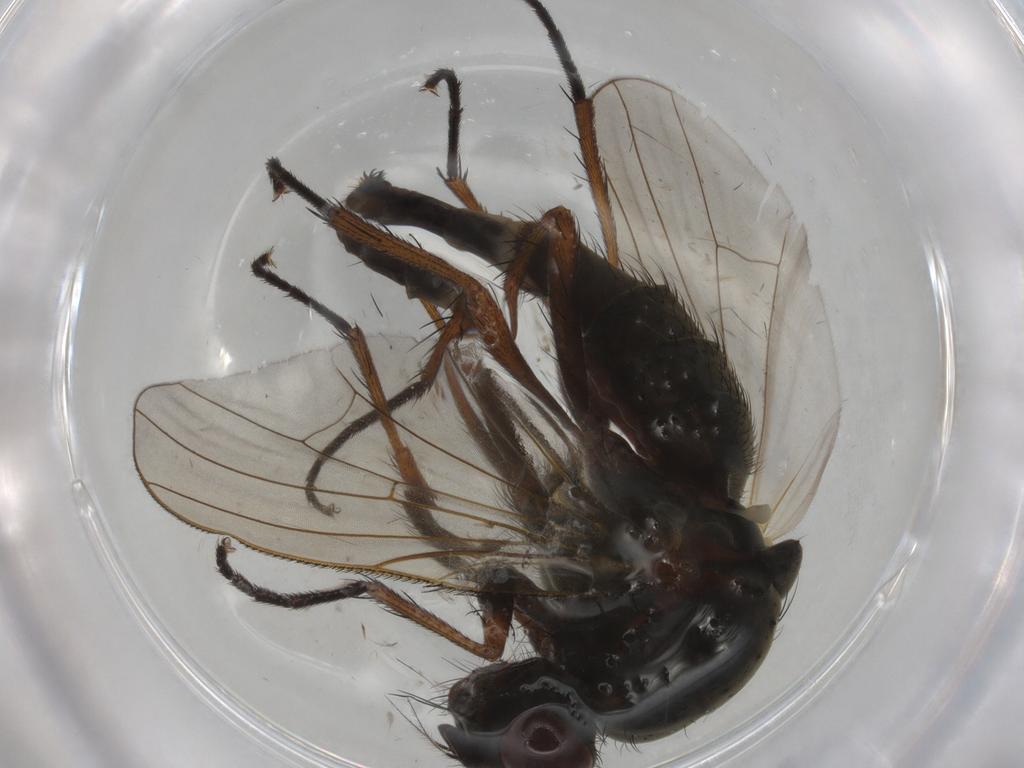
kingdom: Animalia
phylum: Arthropoda
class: Insecta
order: Diptera
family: Anthomyiidae
